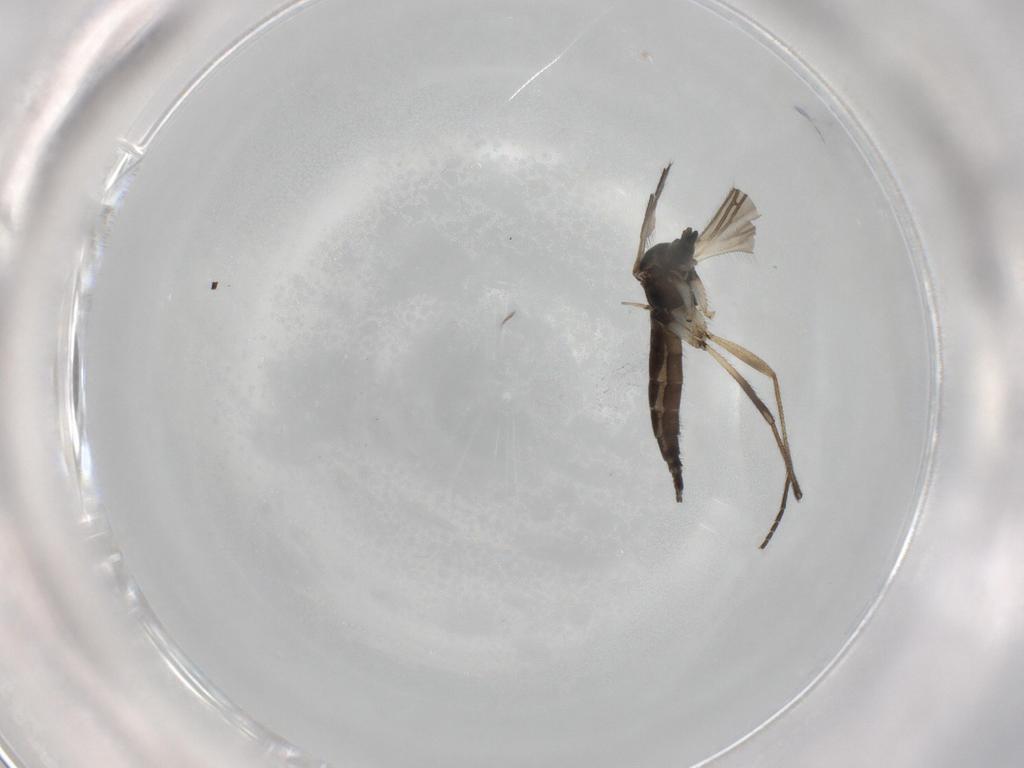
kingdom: Animalia
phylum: Arthropoda
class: Insecta
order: Diptera
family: Sciaridae
